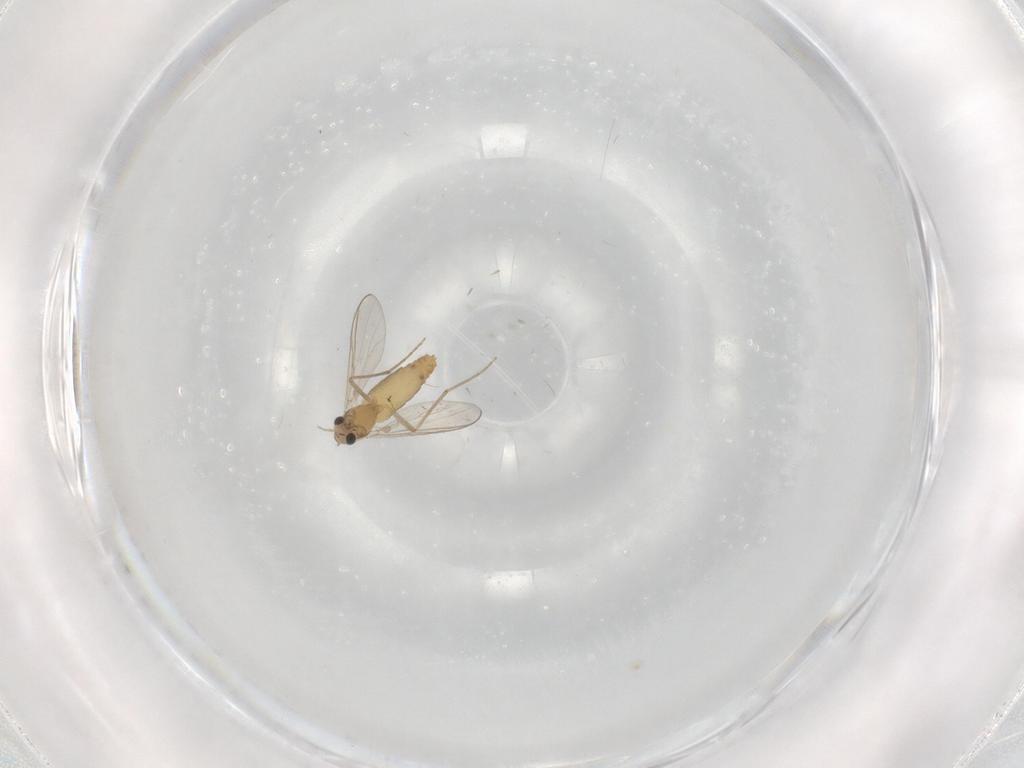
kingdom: Animalia
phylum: Arthropoda
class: Insecta
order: Diptera
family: Chironomidae
